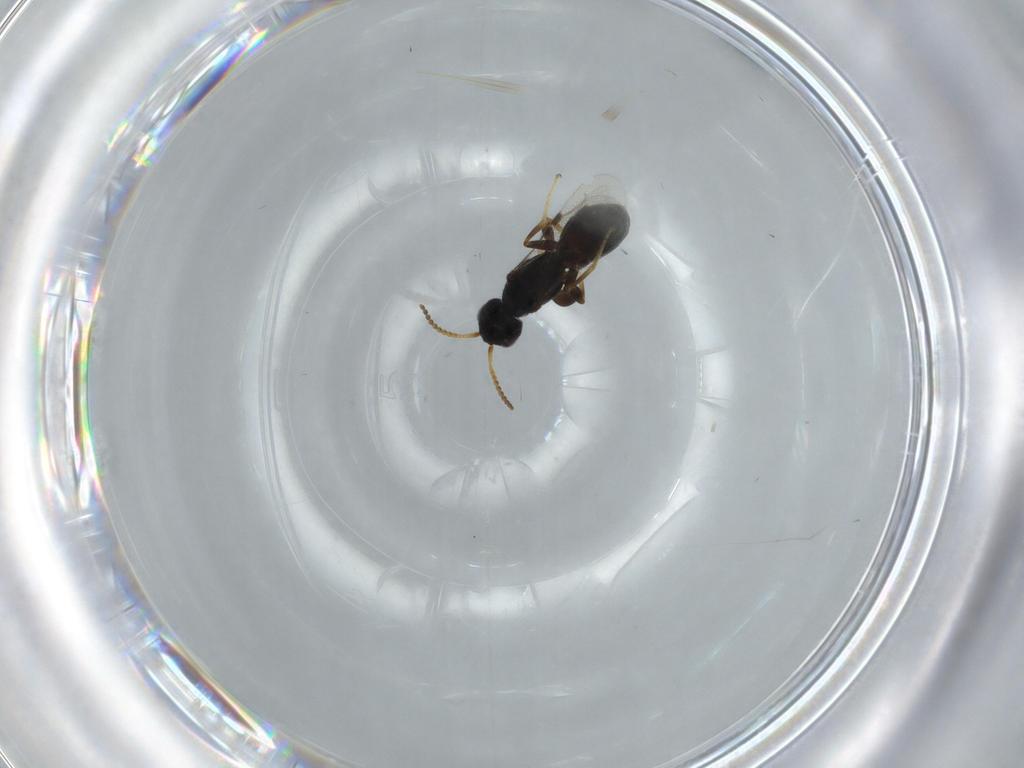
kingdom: Animalia
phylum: Arthropoda
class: Insecta
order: Hymenoptera
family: Bethylidae
